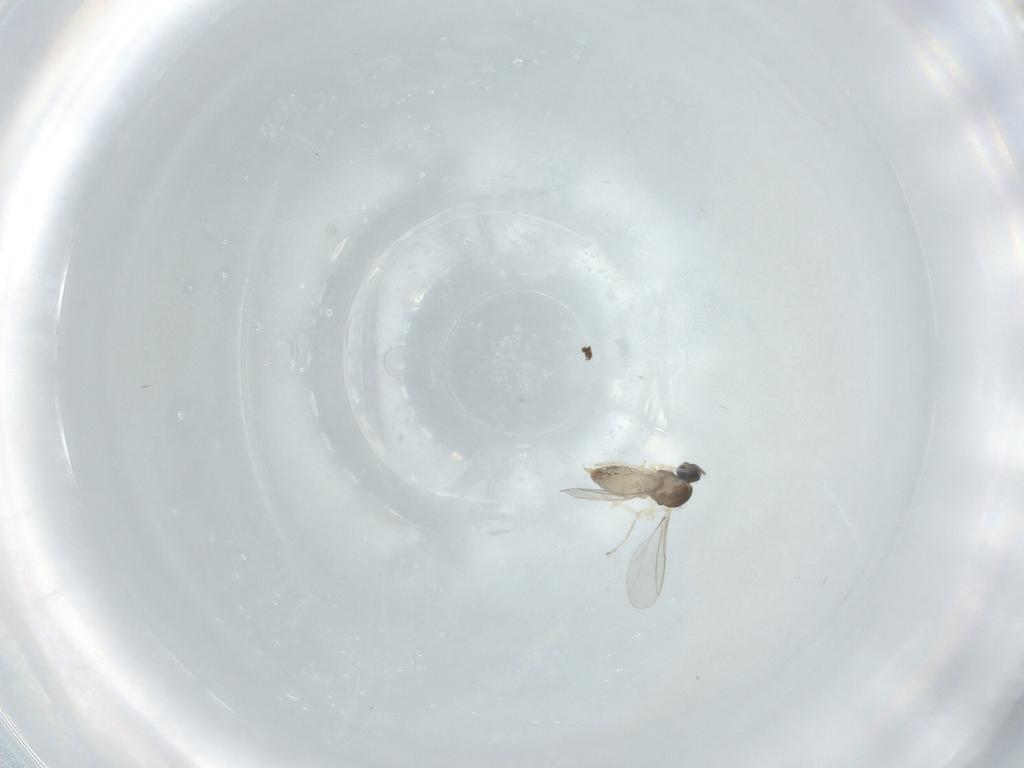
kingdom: Animalia
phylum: Arthropoda
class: Insecta
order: Diptera
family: Cecidomyiidae
